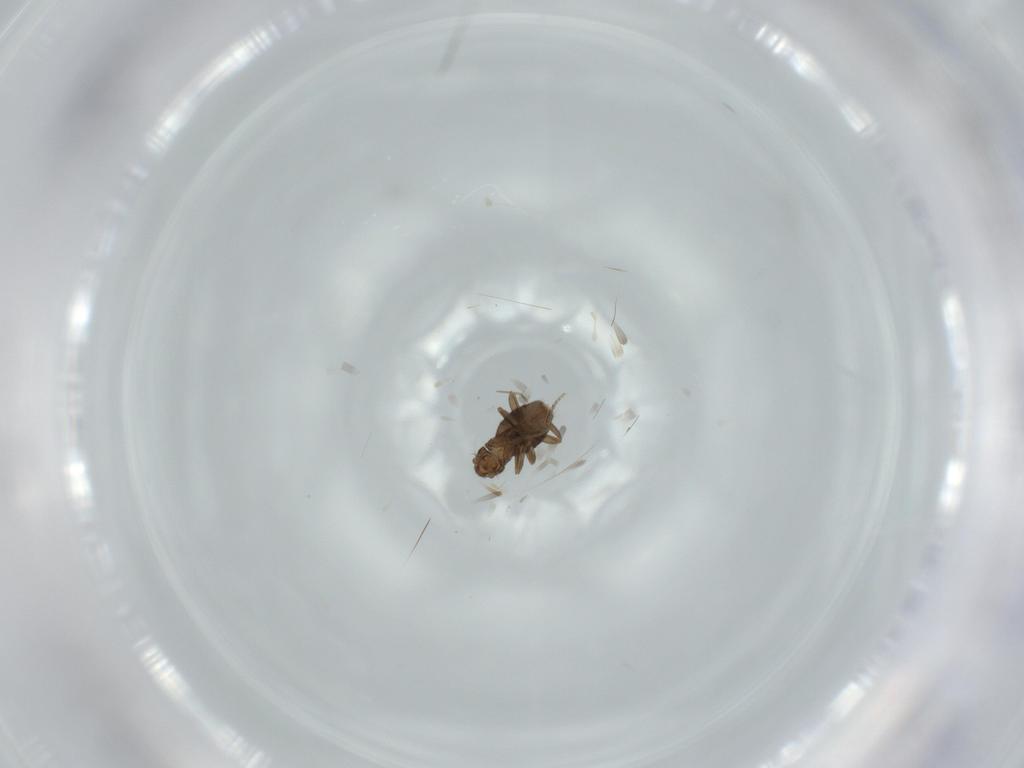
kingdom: Animalia
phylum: Arthropoda
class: Insecta
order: Diptera
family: Phoridae
